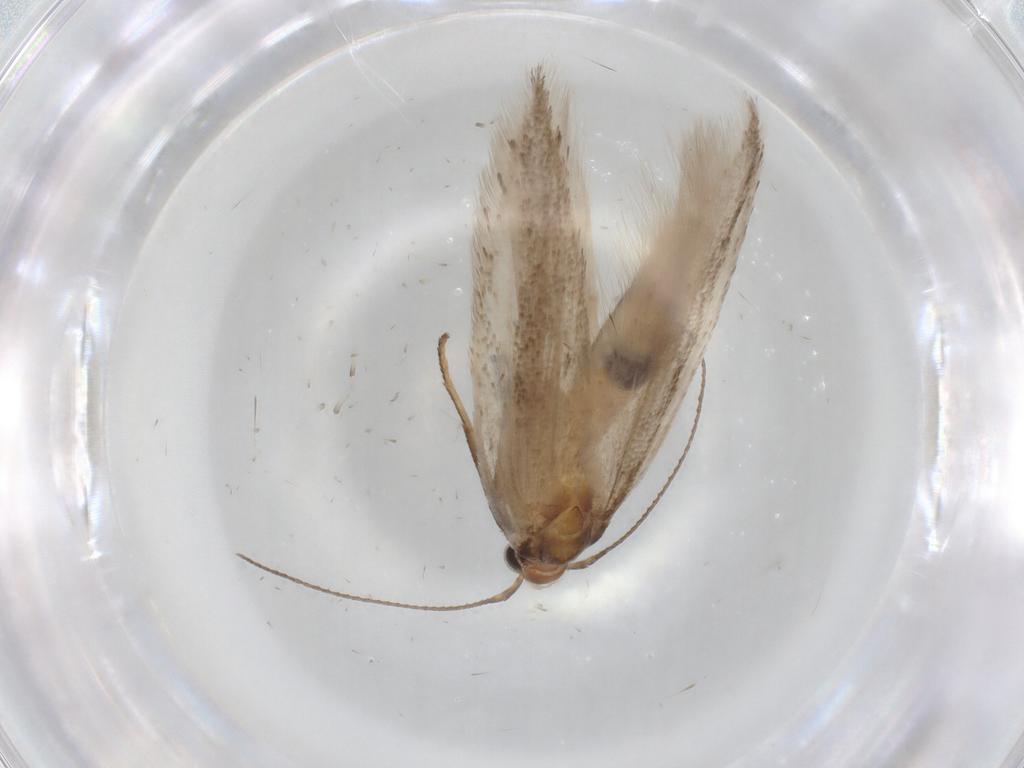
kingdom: Animalia
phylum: Arthropoda
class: Insecta
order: Lepidoptera
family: Gelechiidae
